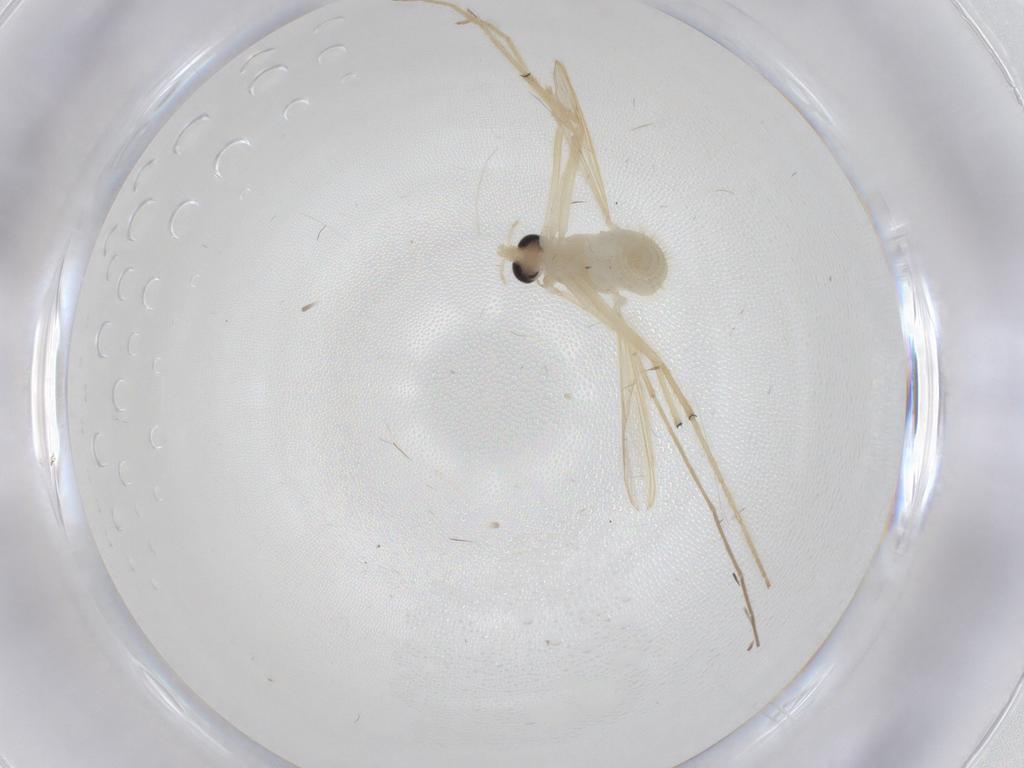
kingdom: Animalia
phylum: Arthropoda
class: Insecta
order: Diptera
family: Chironomidae
